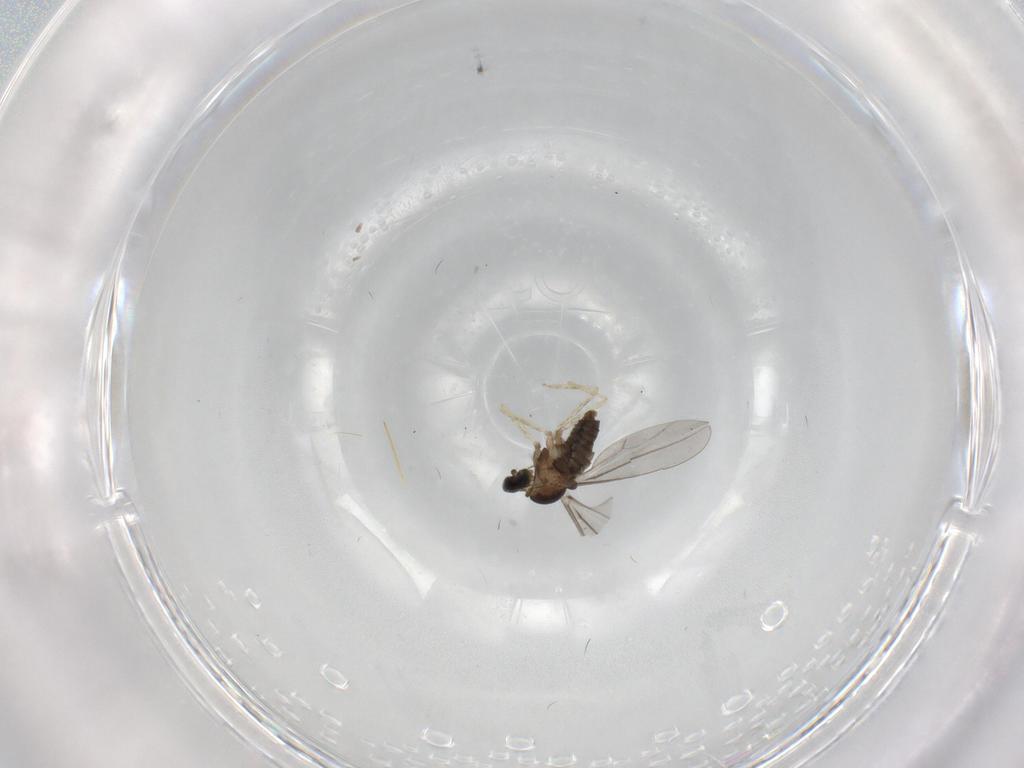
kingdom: Animalia
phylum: Arthropoda
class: Insecta
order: Diptera
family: Cecidomyiidae
